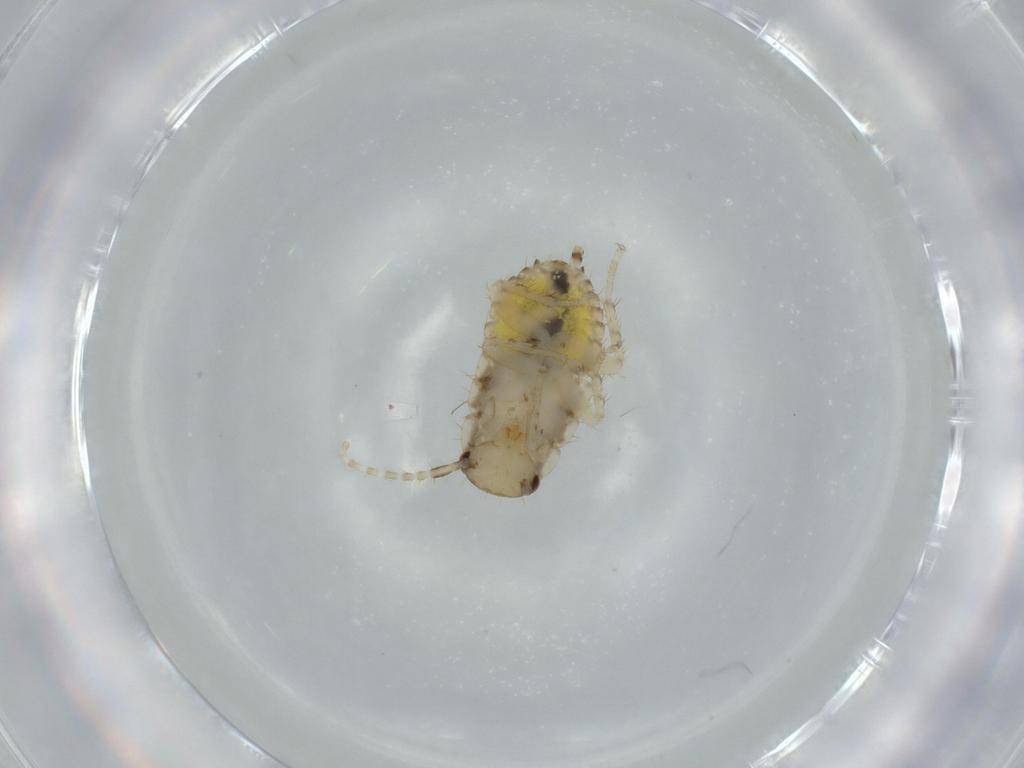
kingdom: Animalia
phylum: Arthropoda
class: Insecta
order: Blattodea
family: Ectobiidae
